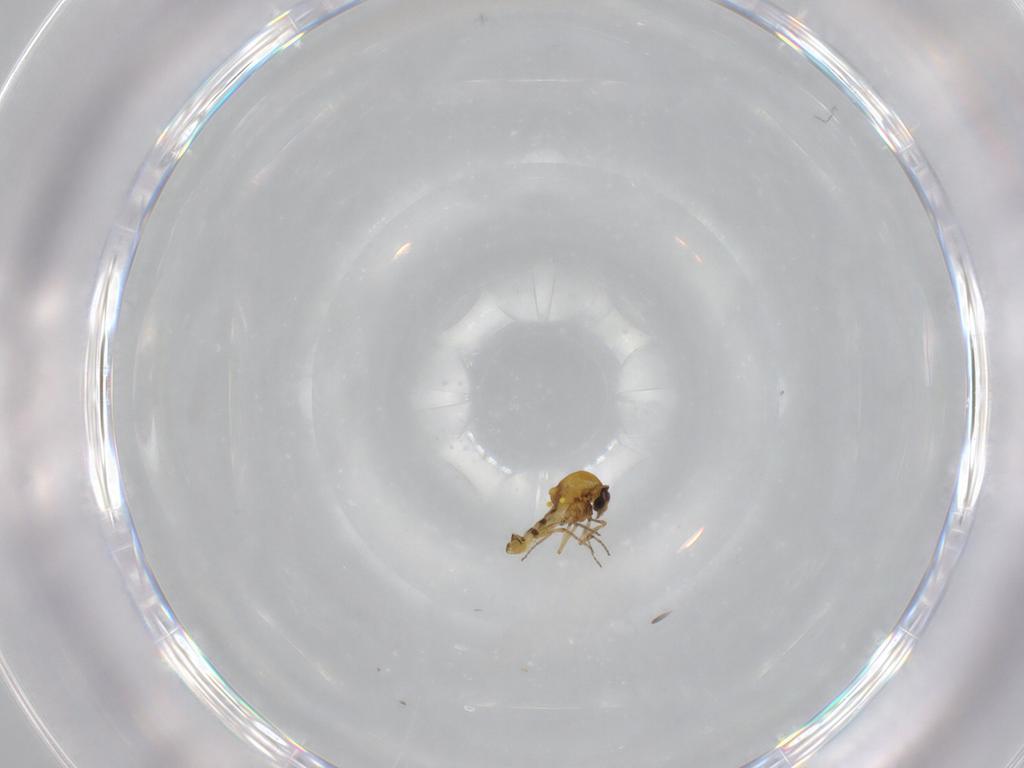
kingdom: Animalia
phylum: Arthropoda
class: Insecta
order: Diptera
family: Ceratopogonidae
